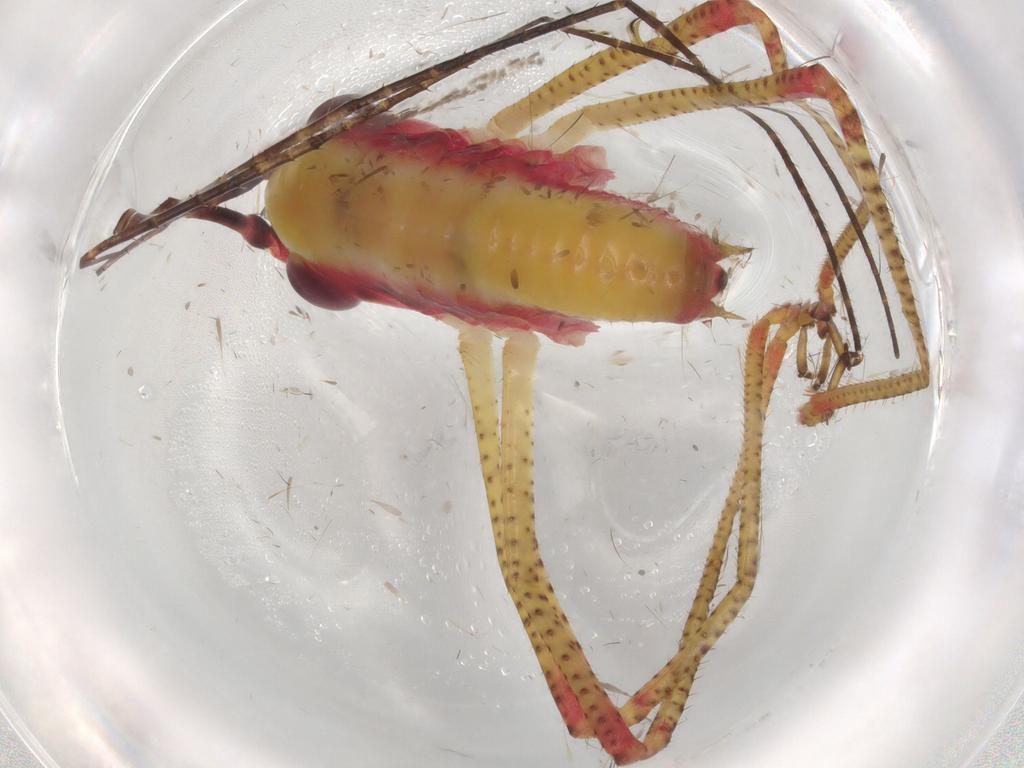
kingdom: Animalia
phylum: Arthropoda
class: Insecta
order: Orthoptera
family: Tettigoniidae
